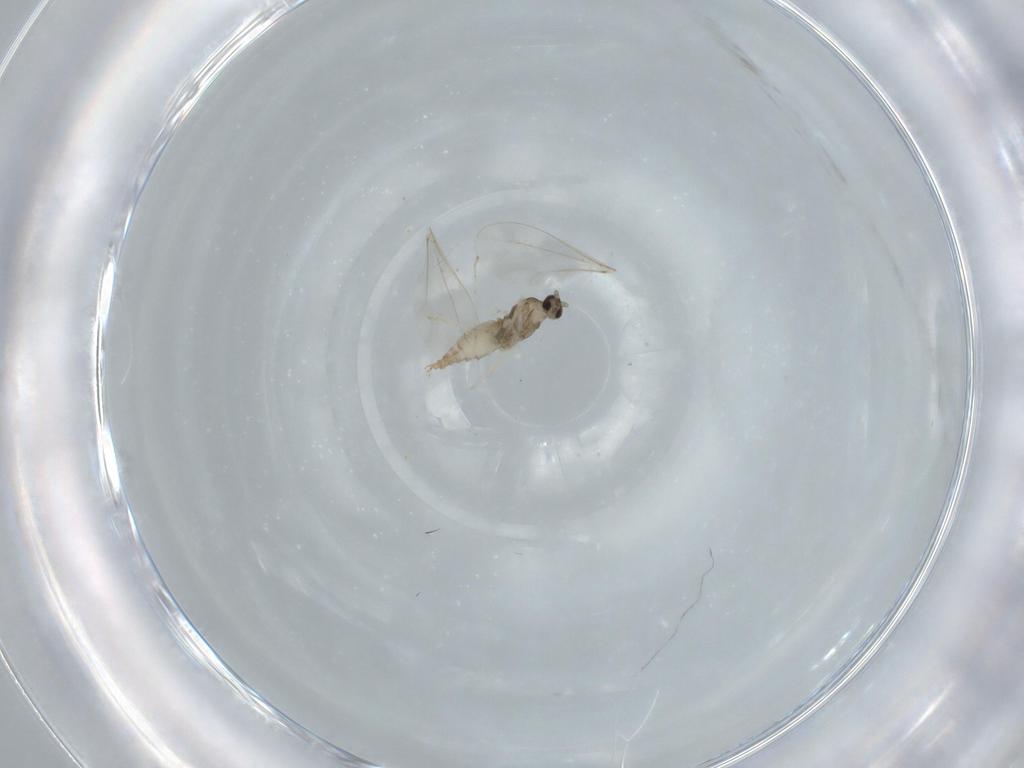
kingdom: Animalia
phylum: Arthropoda
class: Insecta
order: Diptera
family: Cecidomyiidae
